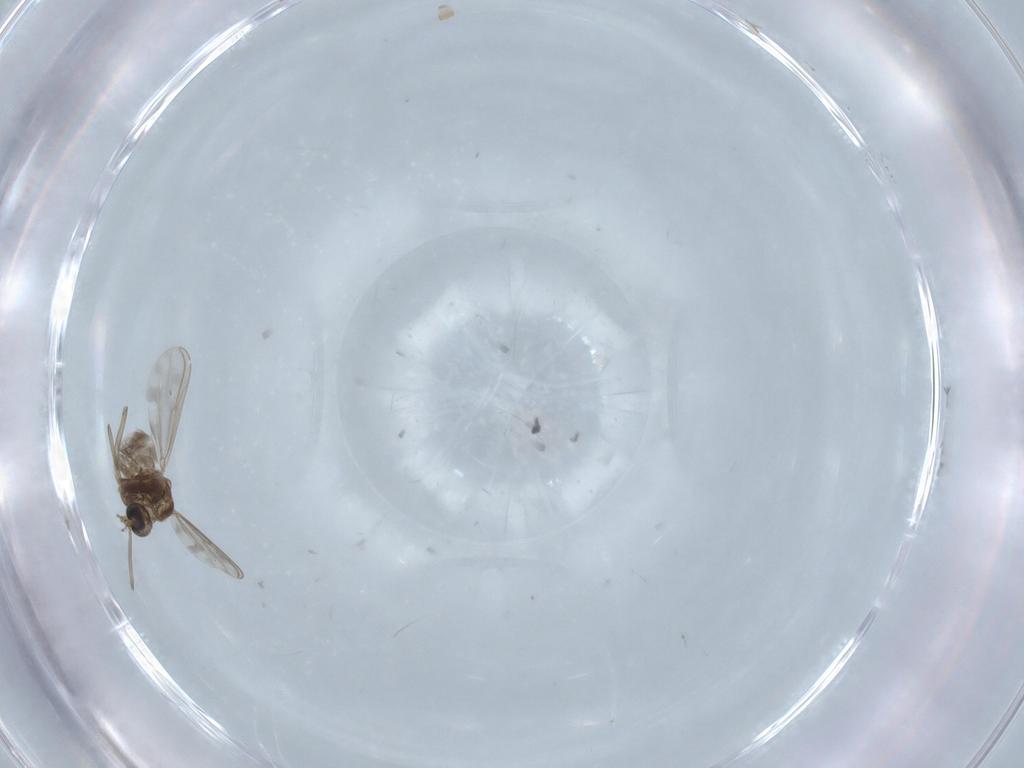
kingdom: Animalia
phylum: Arthropoda
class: Insecta
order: Diptera
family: Chironomidae
